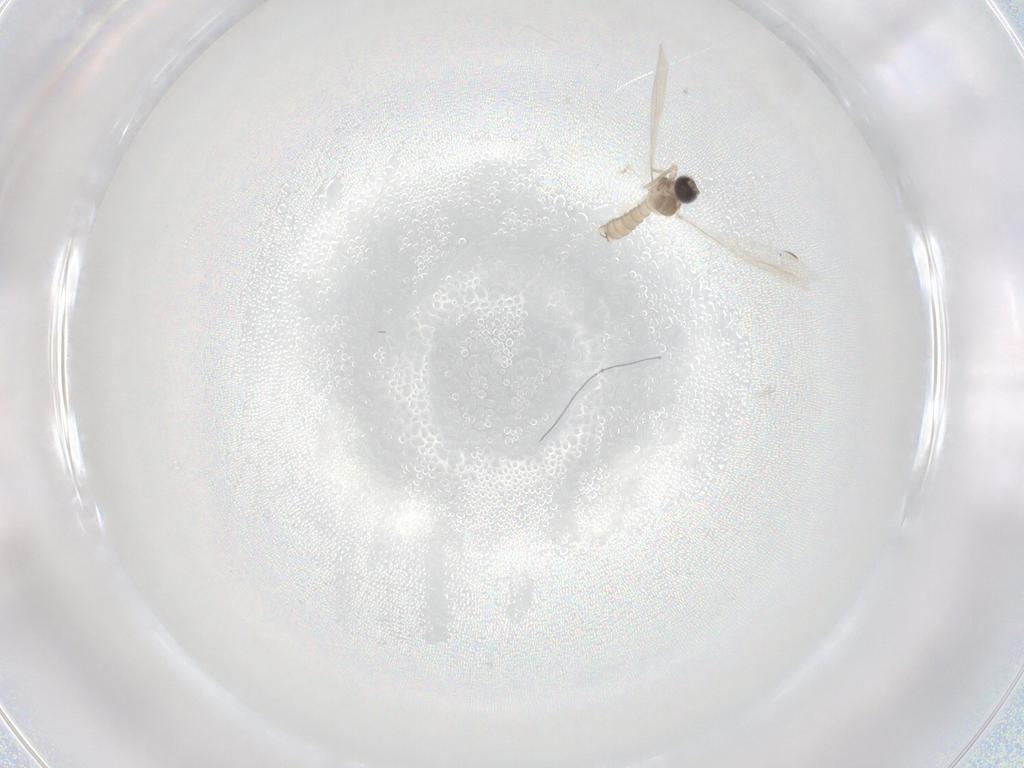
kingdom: Animalia
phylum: Arthropoda
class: Insecta
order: Diptera
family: Cecidomyiidae
